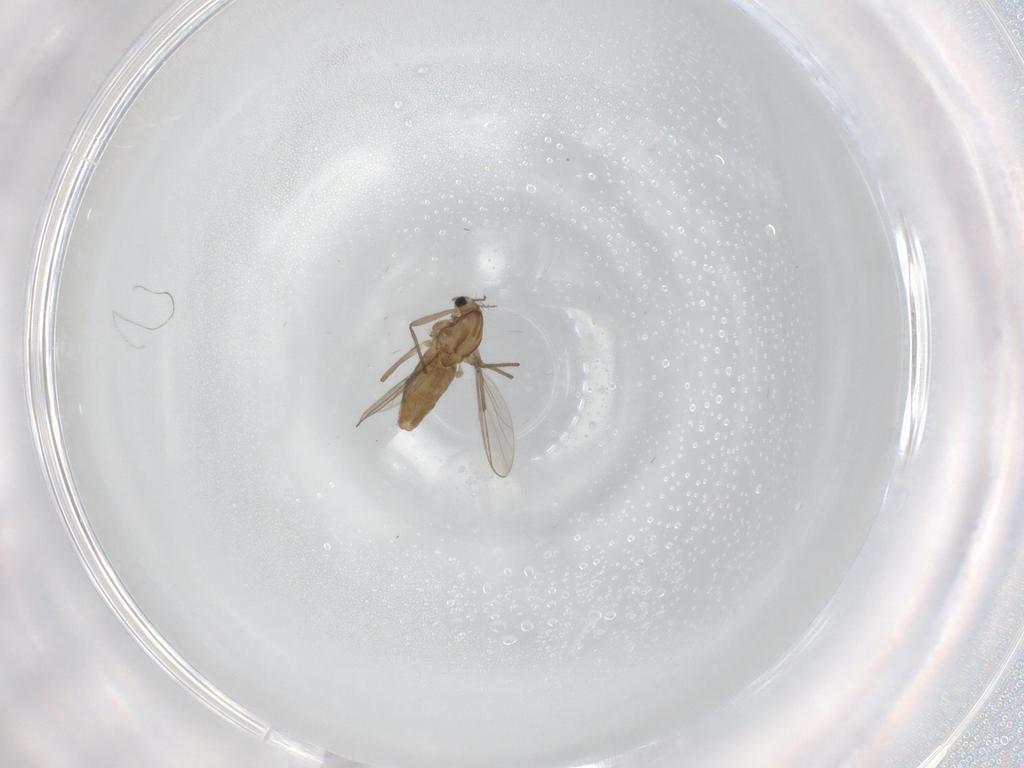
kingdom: Animalia
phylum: Arthropoda
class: Insecta
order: Diptera
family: Chironomidae
